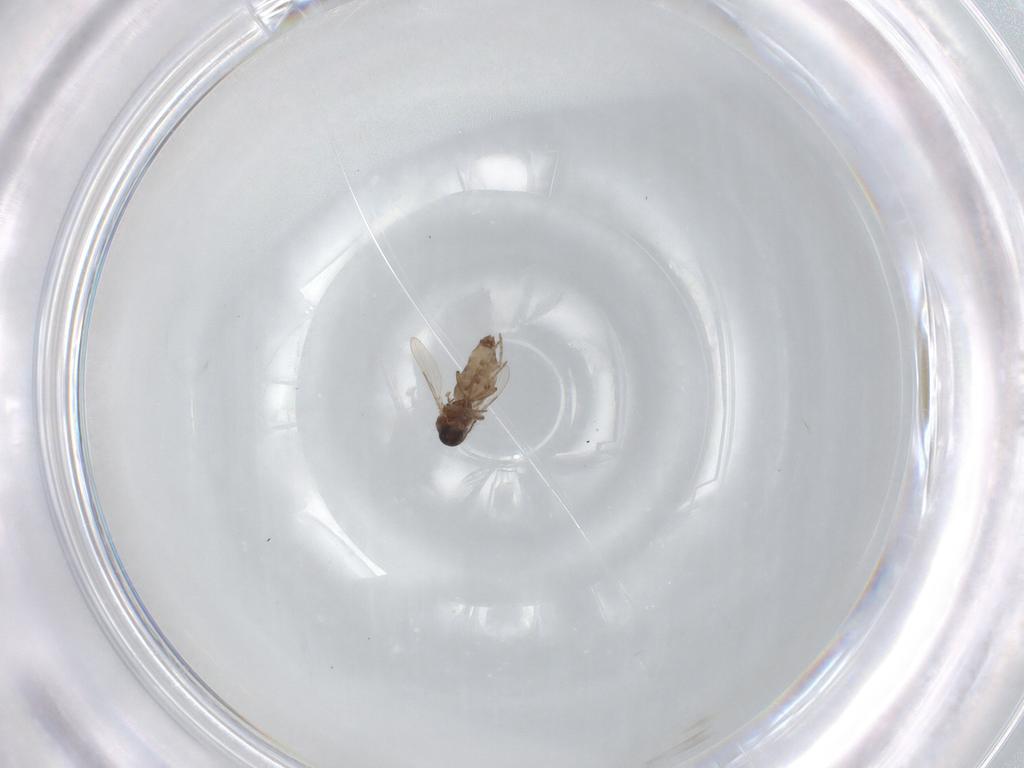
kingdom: Animalia
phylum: Arthropoda
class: Insecta
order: Diptera
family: Ceratopogonidae
